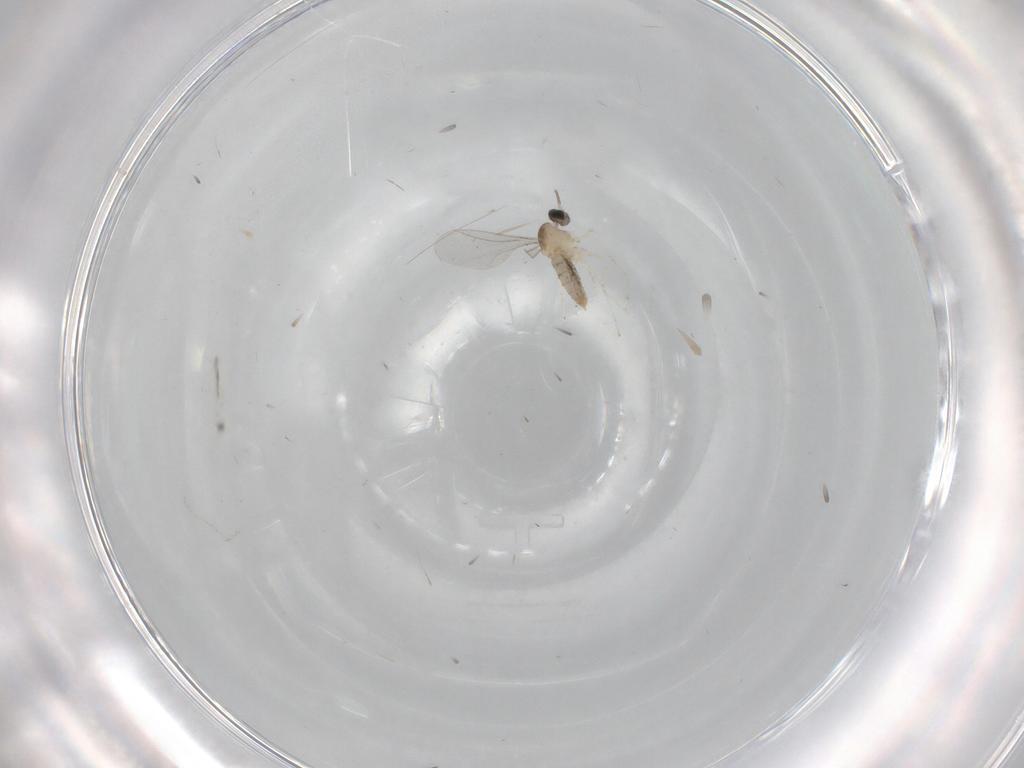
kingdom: Animalia
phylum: Arthropoda
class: Insecta
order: Diptera
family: Cecidomyiidae
